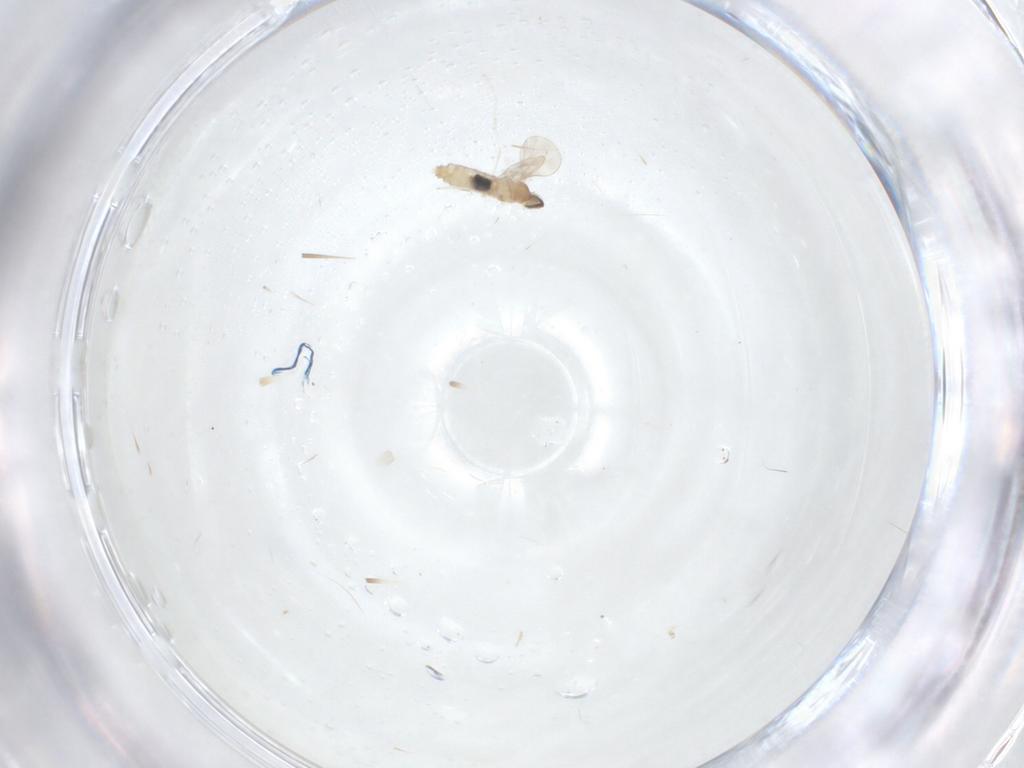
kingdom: Animalia
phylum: Arthropoda
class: Insecta
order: Diptera
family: Cecidomyiidae
